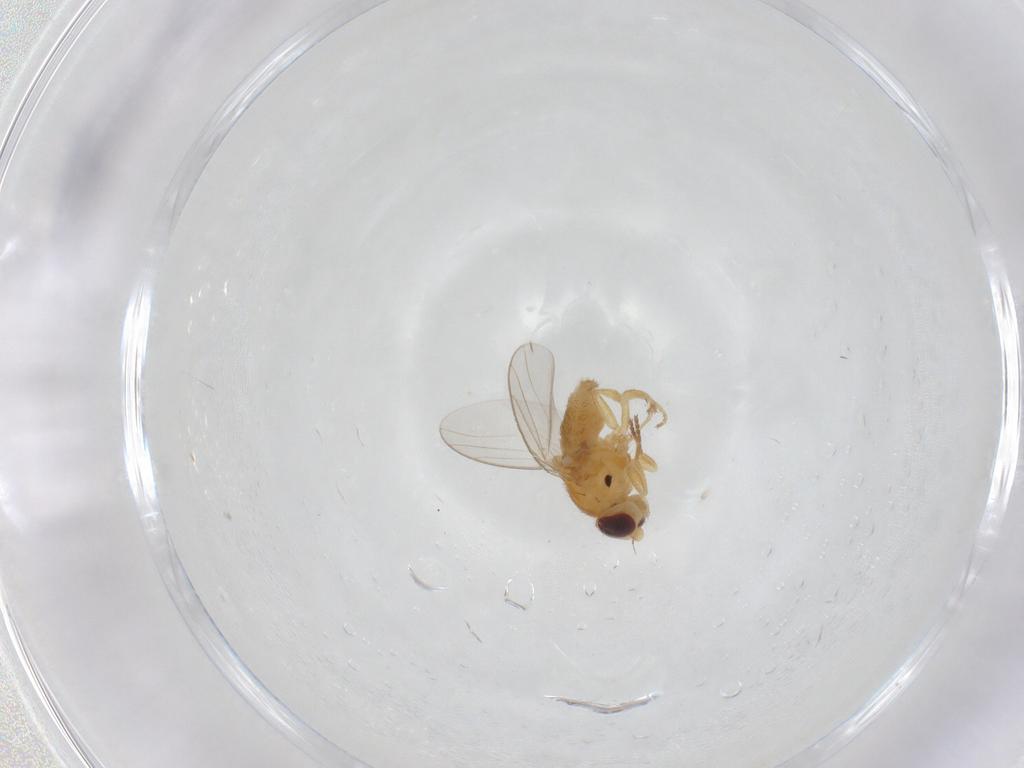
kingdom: Animalia
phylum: Arthropoda
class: Insecta
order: Diptera
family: Chloropidae
